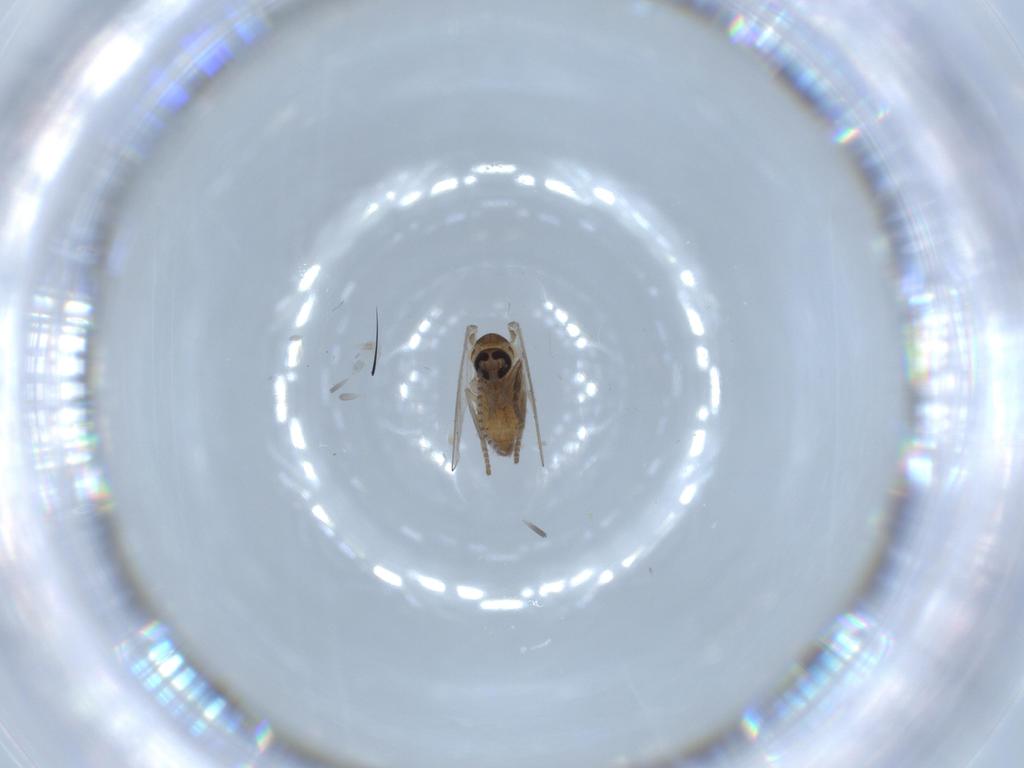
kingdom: Animalia
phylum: Arthropoda
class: Insecta
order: Diptera
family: Psychodidae
